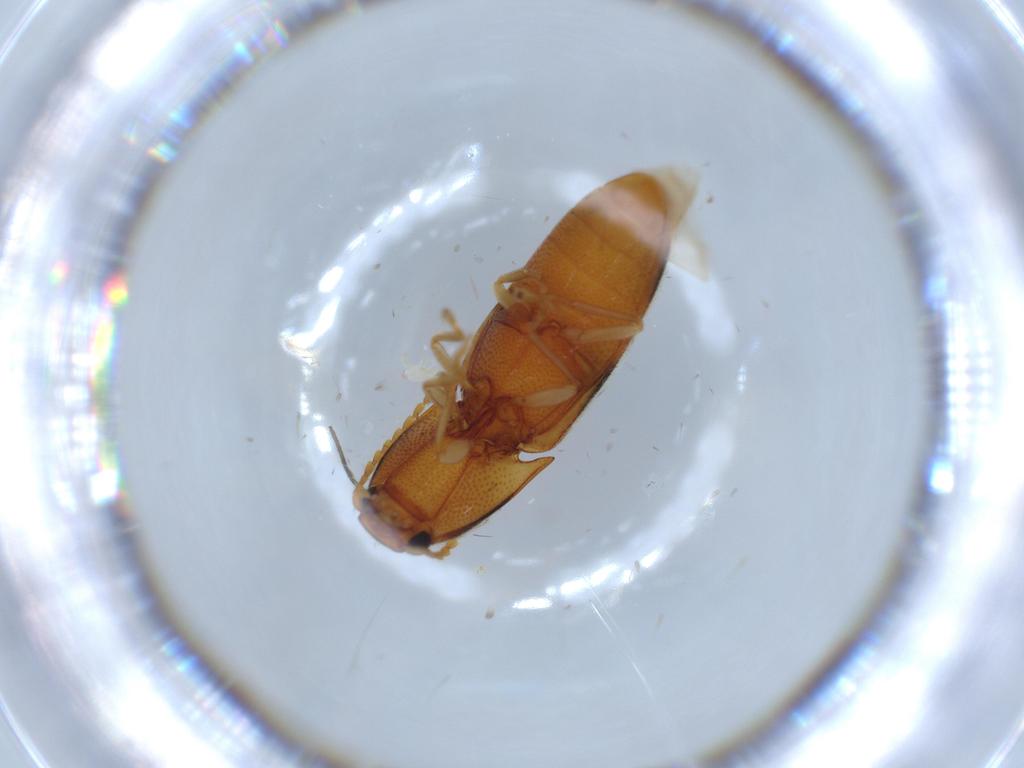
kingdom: Animalia
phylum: Arthropoda
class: Insecta
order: Coleoptera
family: Elateridae
